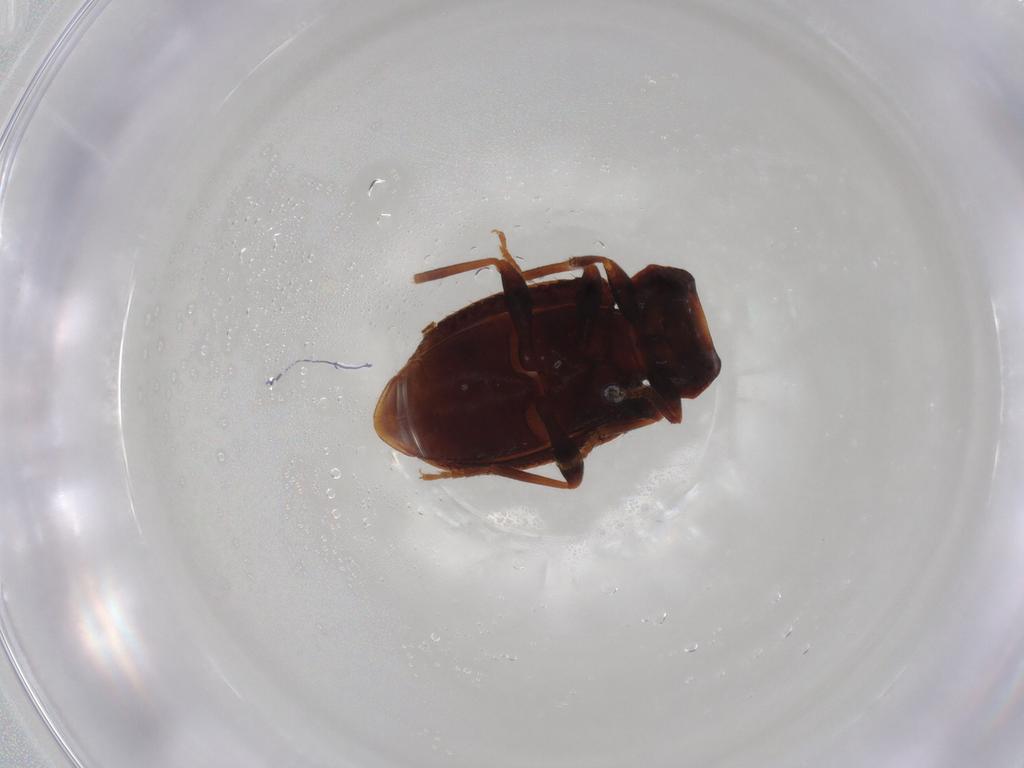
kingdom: Animalia
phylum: Arthropoda
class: Insecta
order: Coleoptera
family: Tenebrionidae
